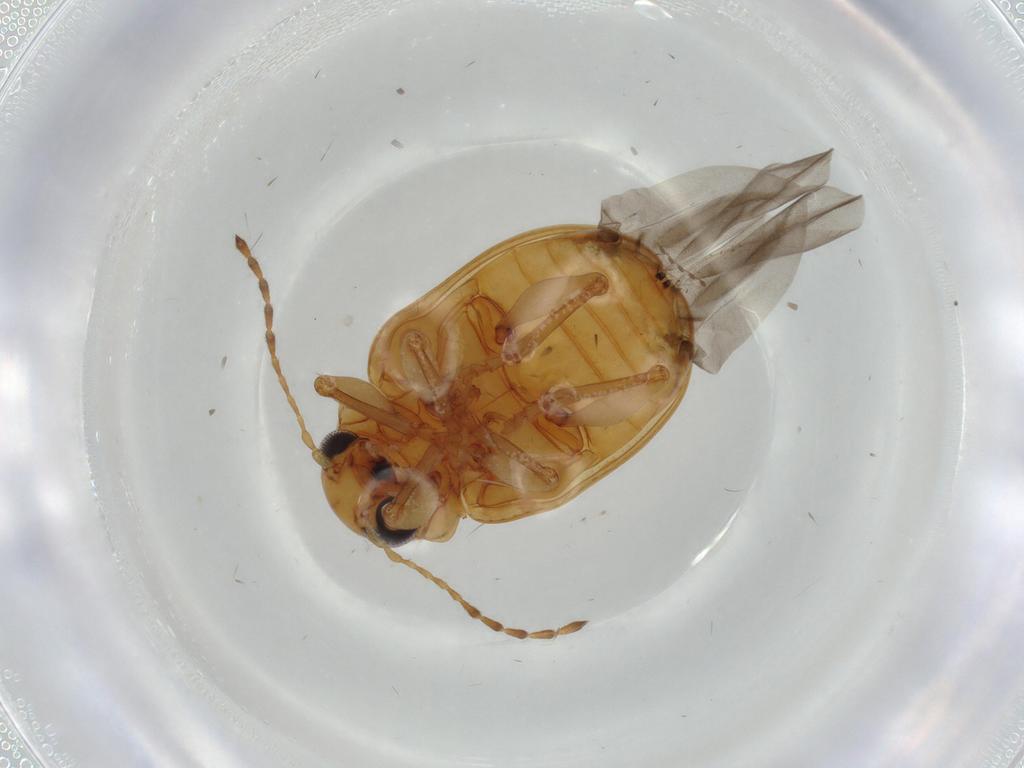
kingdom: Animalia
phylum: Arthropoda
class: Insecta
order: Coleoptera
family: Chrysomelidae
